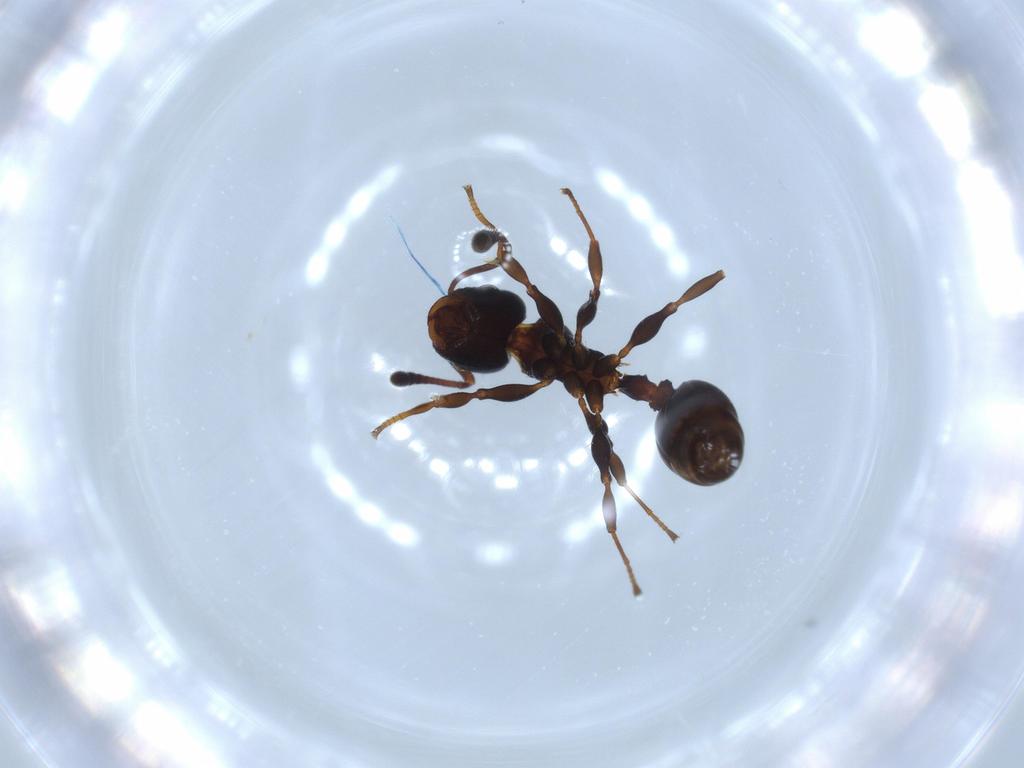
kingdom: Animalia
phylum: Arthropoda
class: Insecta
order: Hymenoptera
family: Formicidae
